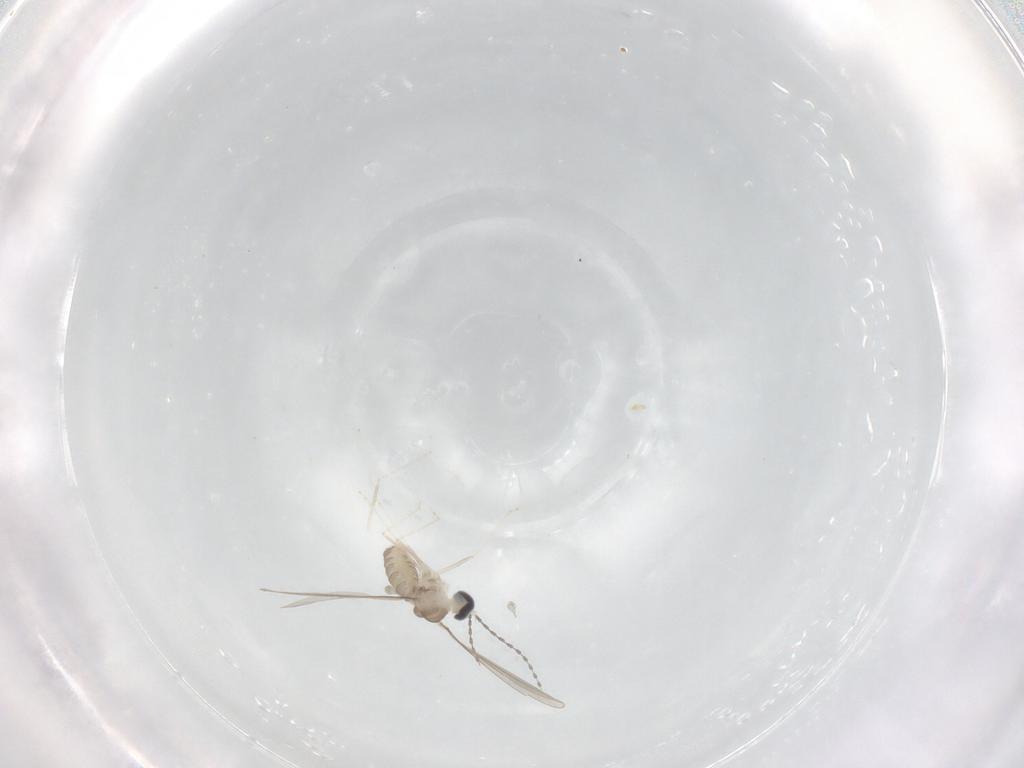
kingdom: Animalia
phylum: Arthropoda
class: Insecta
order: Diptera
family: Cecidomyiidae
